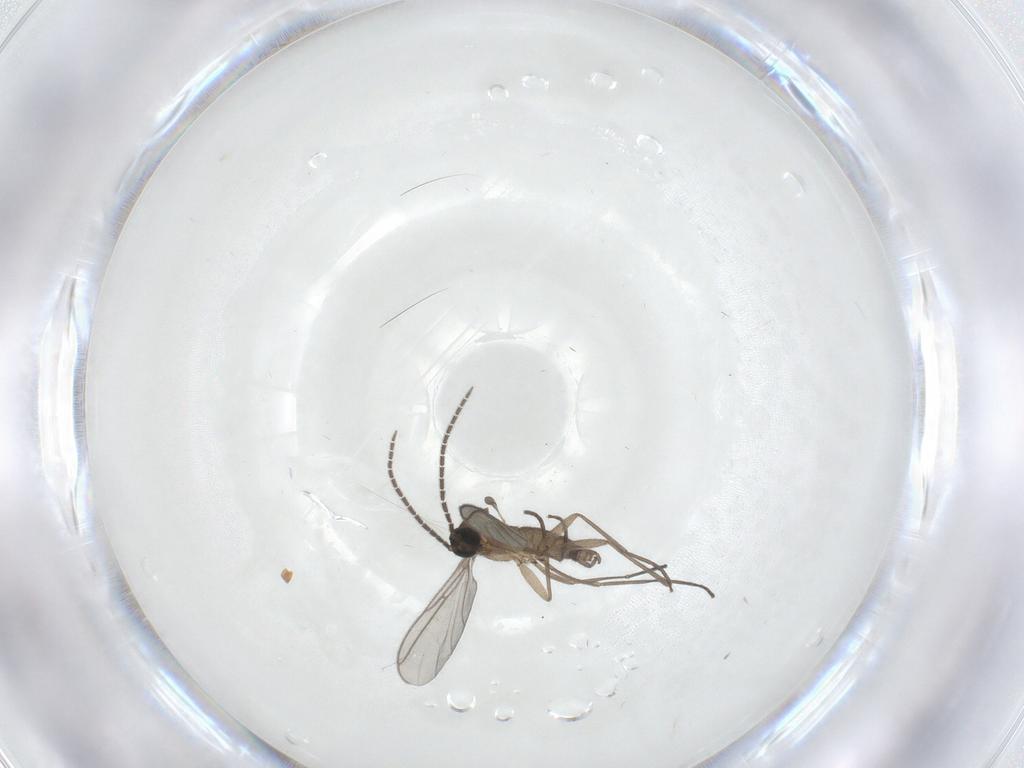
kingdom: Animalia
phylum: Arthropoda
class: Insecta
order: Diptera
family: Sciaridae
